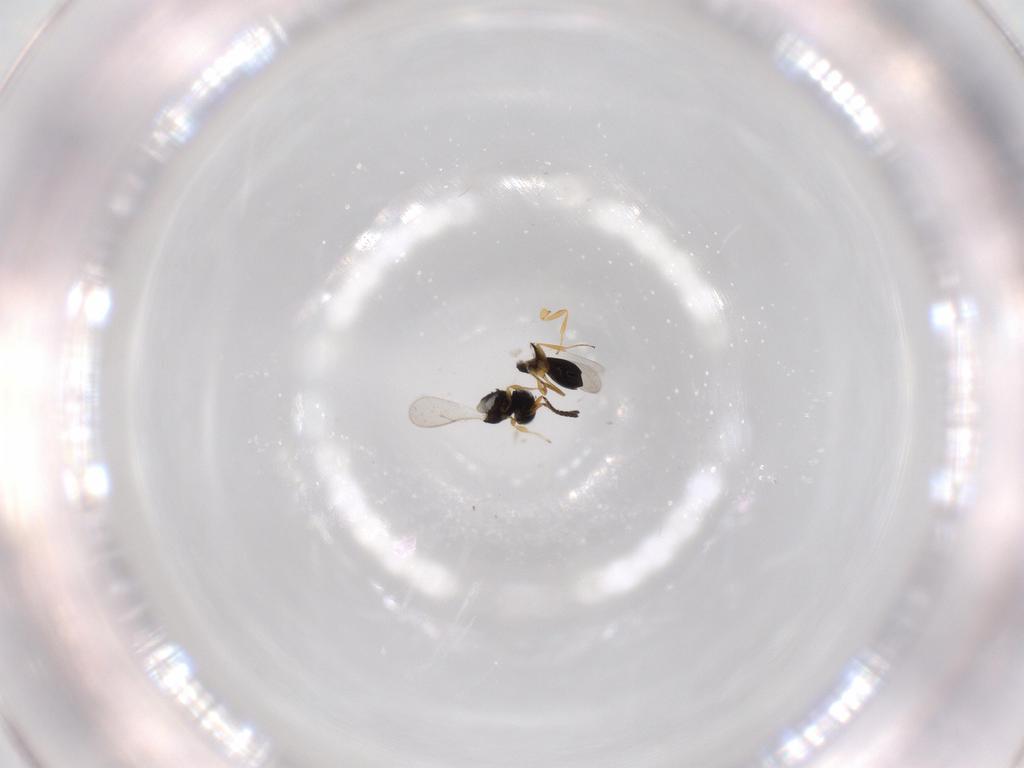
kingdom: Animalia
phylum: Arthropoda
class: Insecta
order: Hymenoptera
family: Scelionidae
